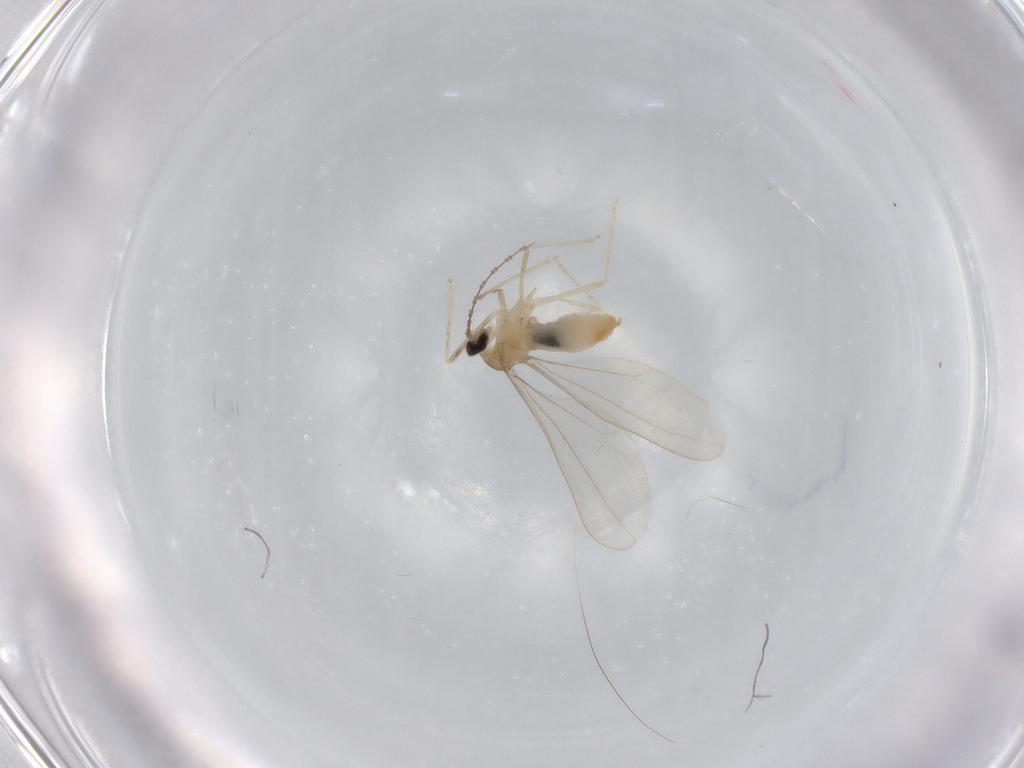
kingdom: Animalia
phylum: Arthropoda
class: Insecta
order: Diptera
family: Cecidomyiidae
